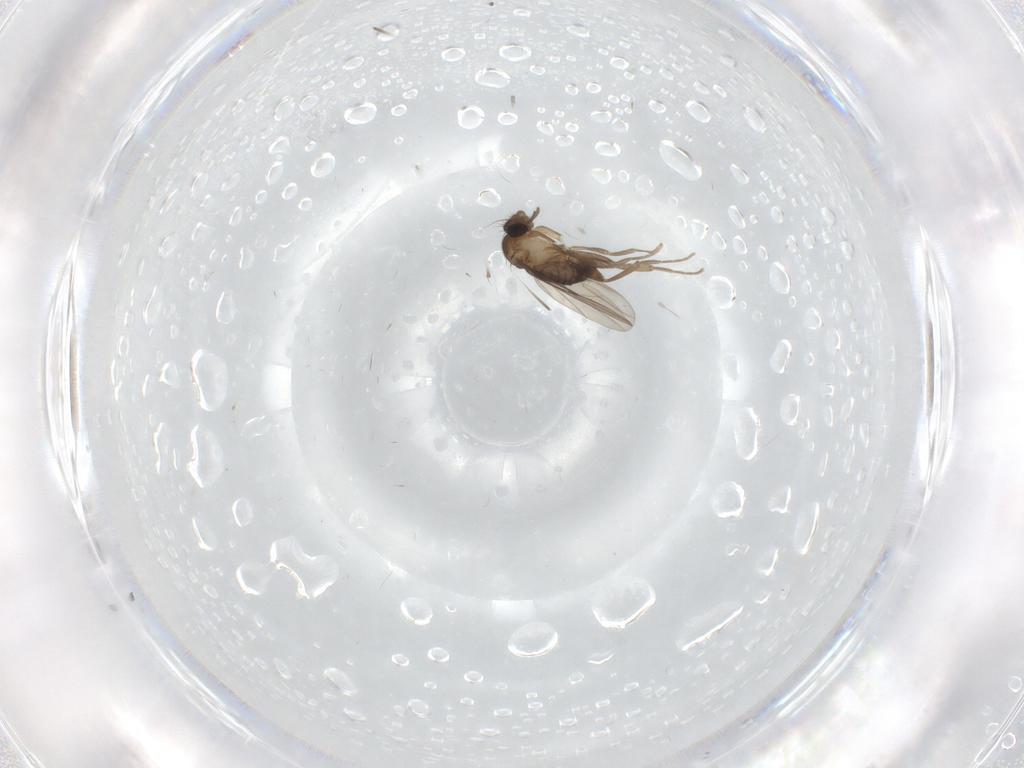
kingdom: Animalia
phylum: Arthropoda
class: Insecta
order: Diptera
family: Psychodidae
